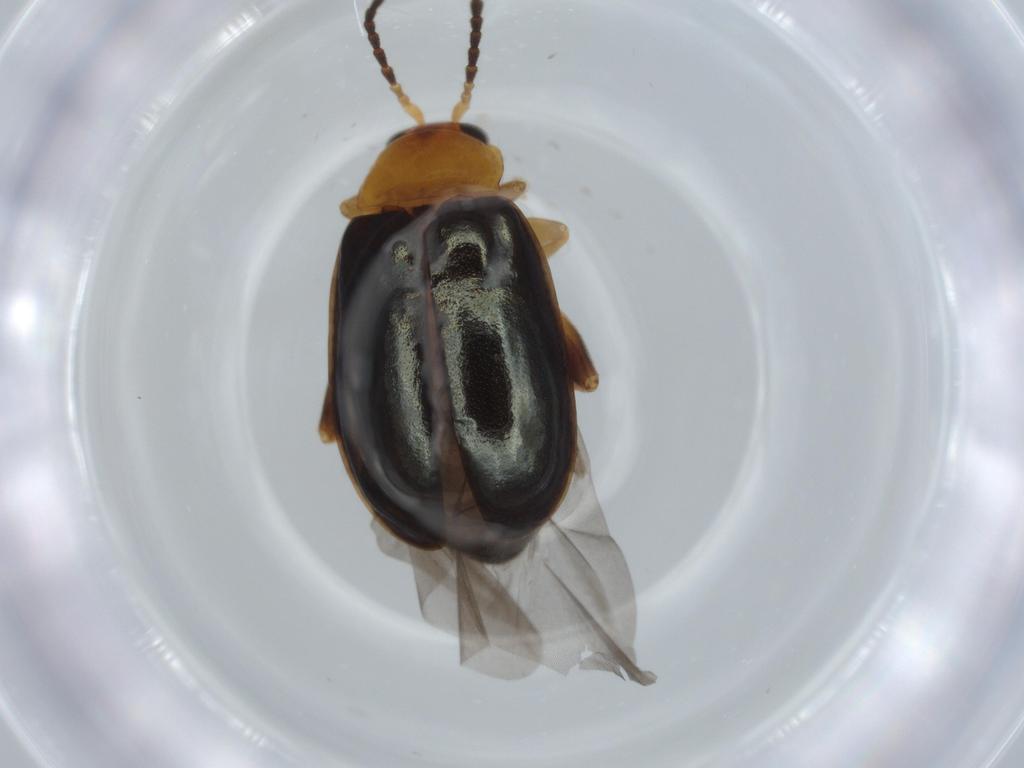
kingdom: Animalia
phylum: Arthropoda
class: Insecta
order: Coleoptera
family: Chrysomelidae
